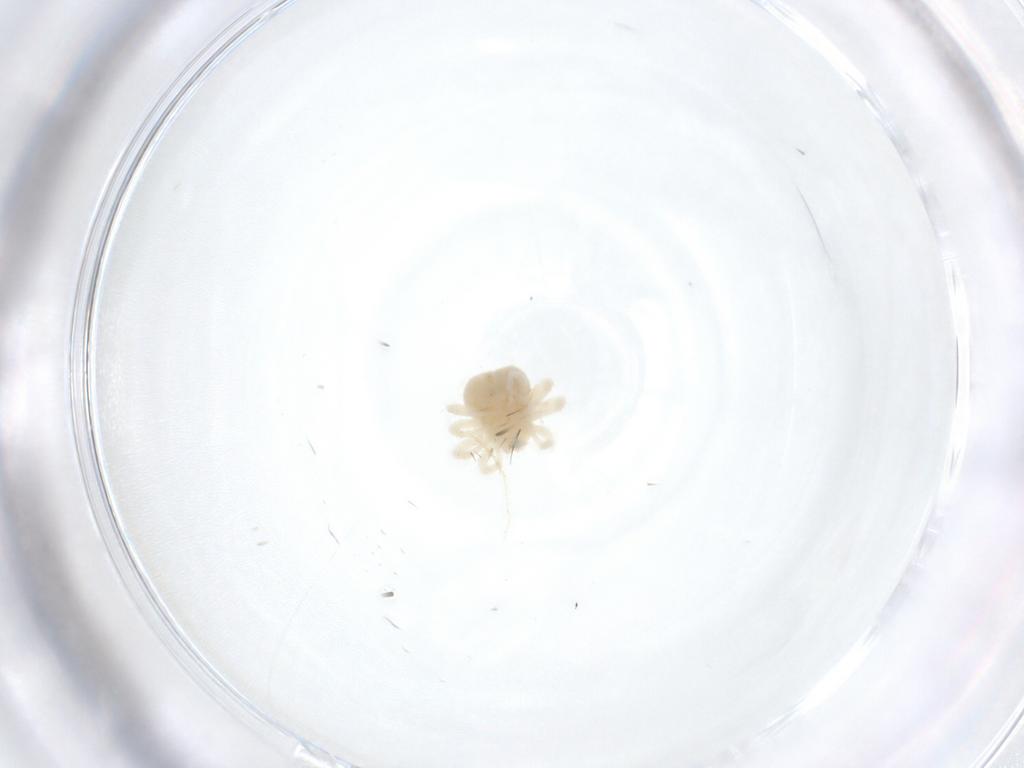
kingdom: Animalia
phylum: Arthropoda
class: Arachnida
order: Trombidiformes
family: Erythraeidae
